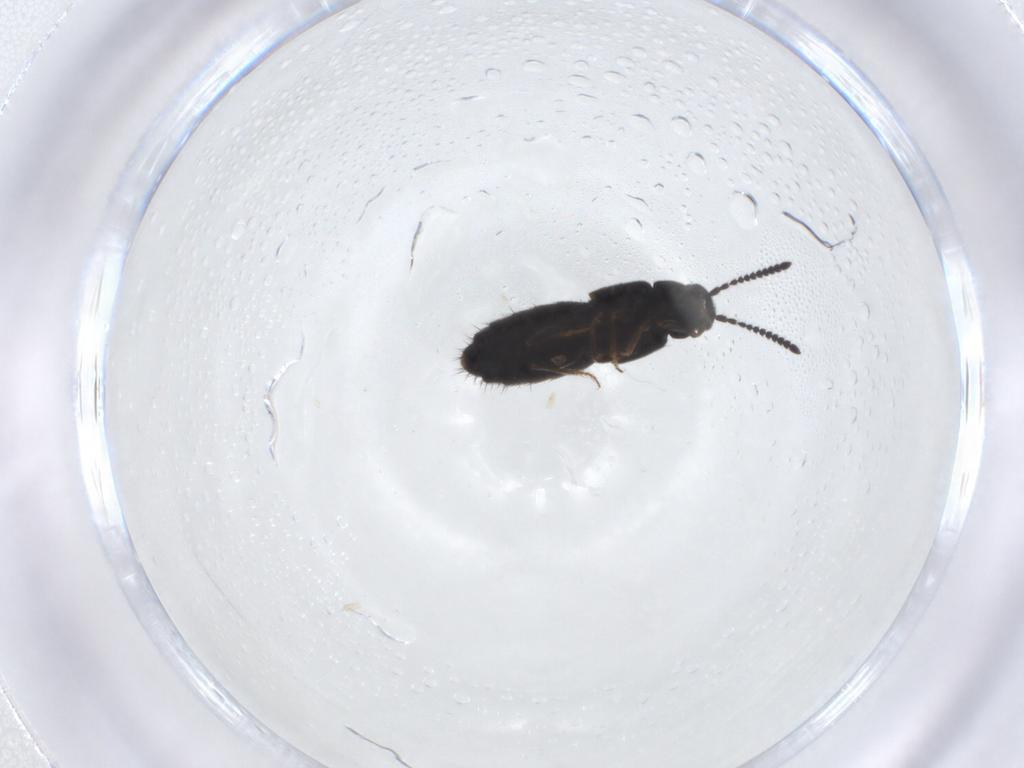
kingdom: Animalia
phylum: Arthropoda
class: Insecta
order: Coleoptera
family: Staphylinidae
